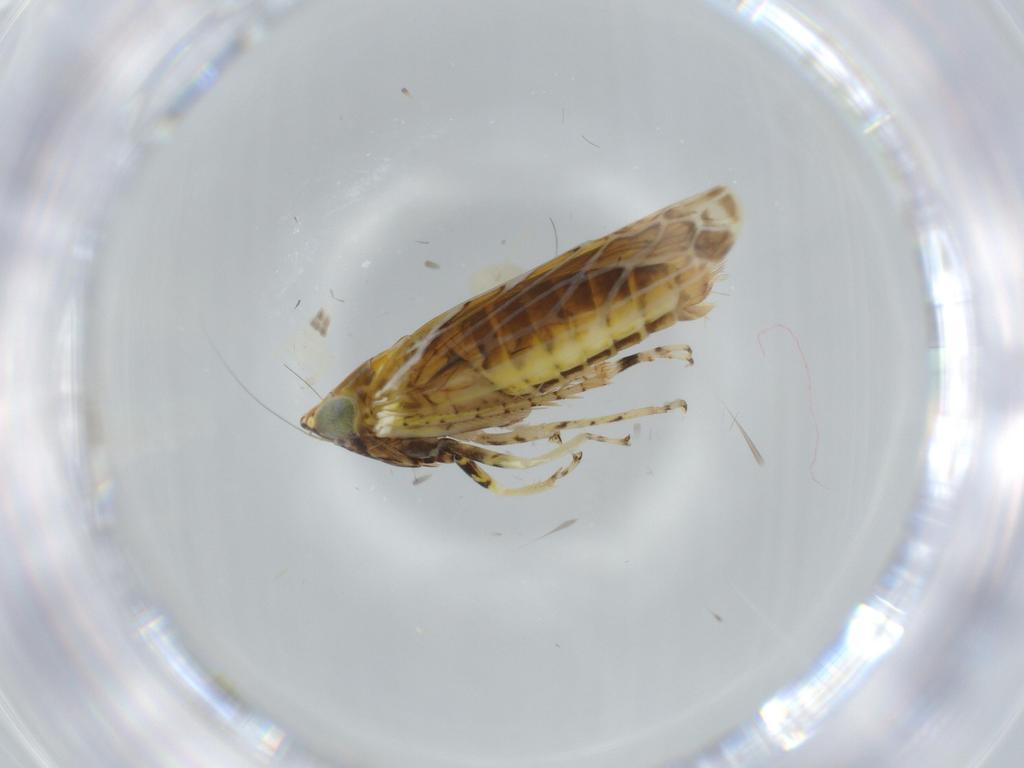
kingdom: Animalia
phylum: Arthropoda
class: Insecta
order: Hemiptera
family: Cicadellidae
